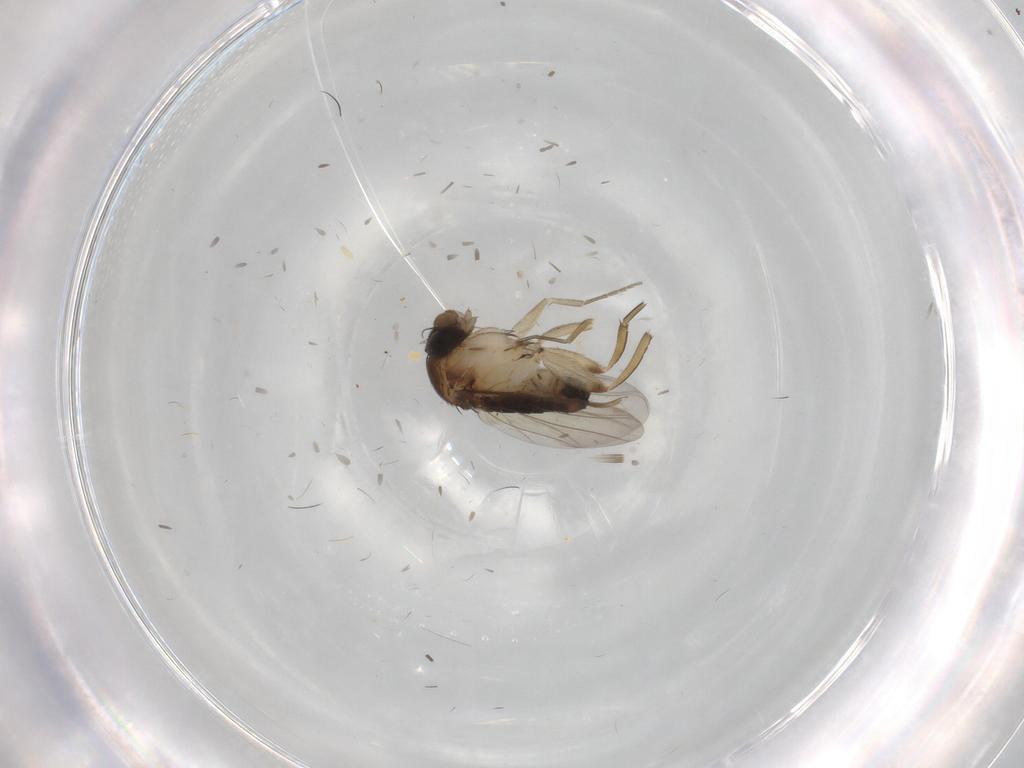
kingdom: Animalia
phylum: Arthropoda
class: Insecta
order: Diptera
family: Phoridae
